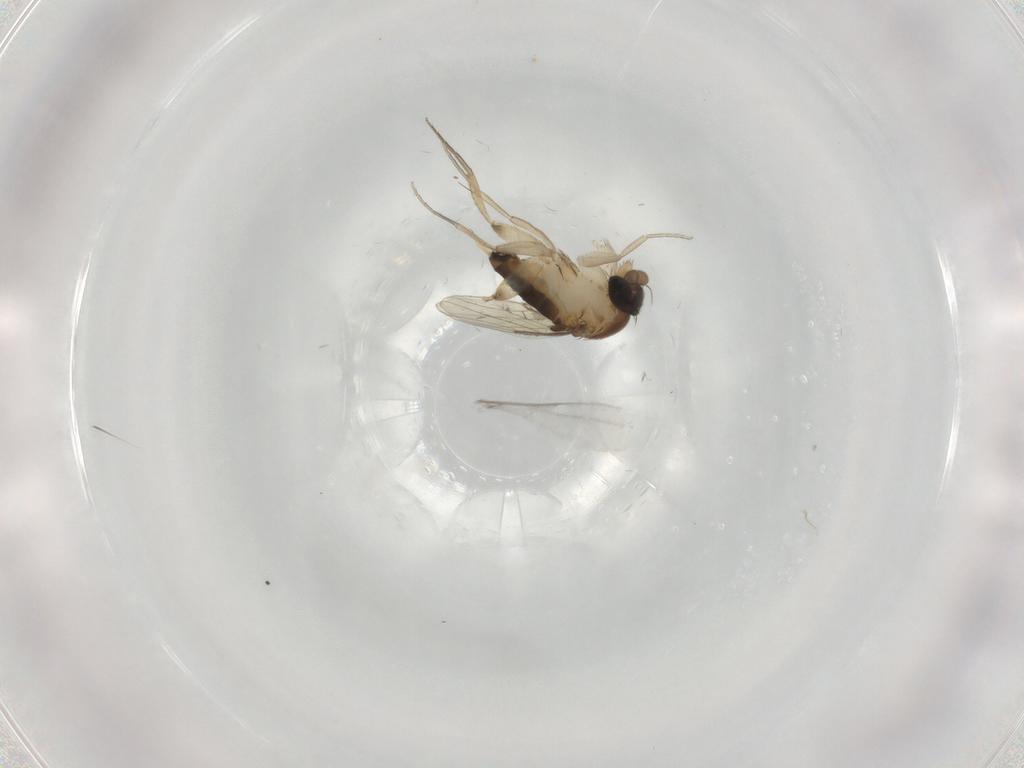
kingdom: Animalia
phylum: Arthropoda
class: Insecta
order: Diptera
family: Phoridae
